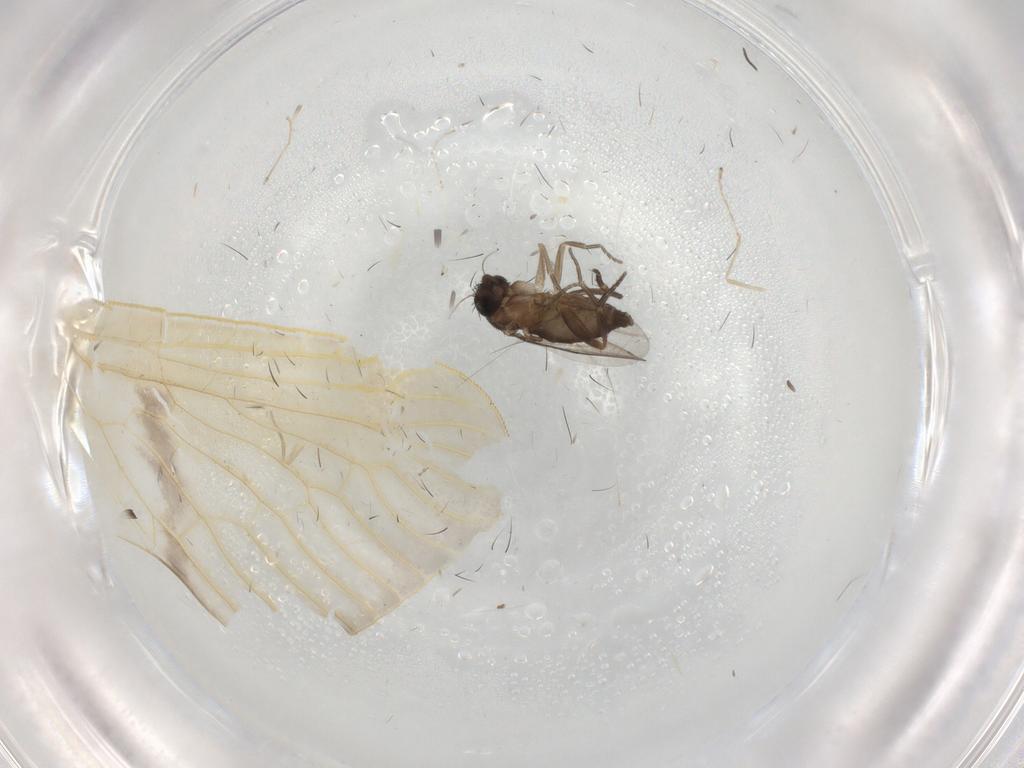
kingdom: Animalia
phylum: Arthropoda
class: Insecta
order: Diptera
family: Phoridae
